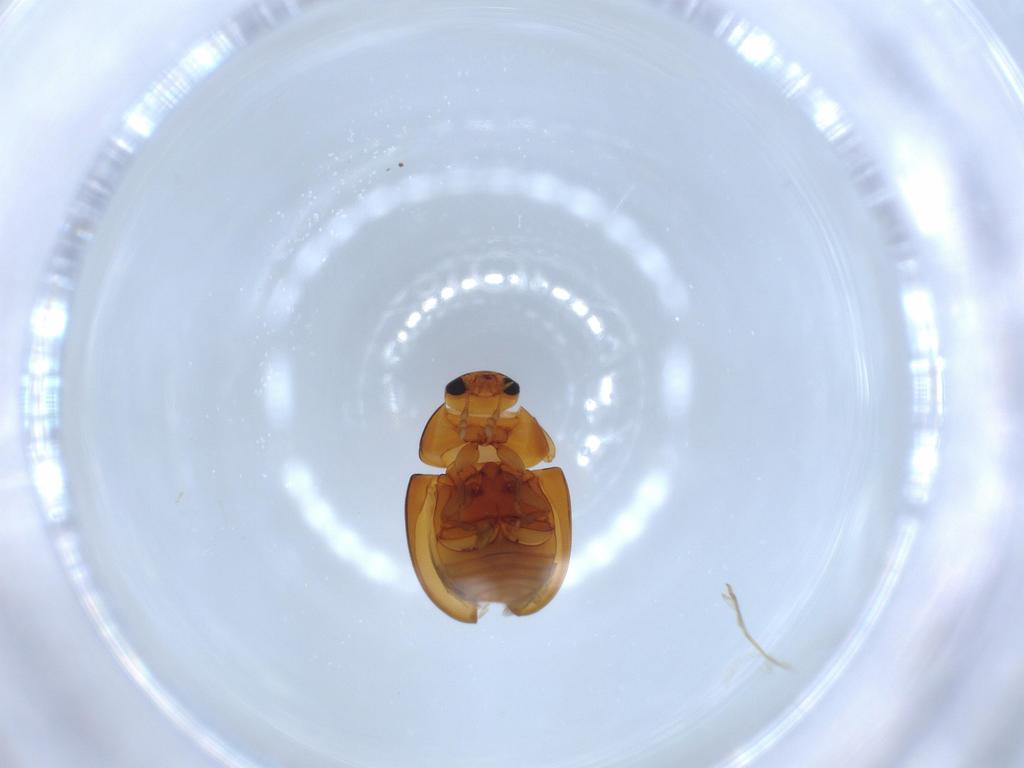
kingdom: Animalia
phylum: Arthropoda
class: Insecta
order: Coleoptera
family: Phalacridae
